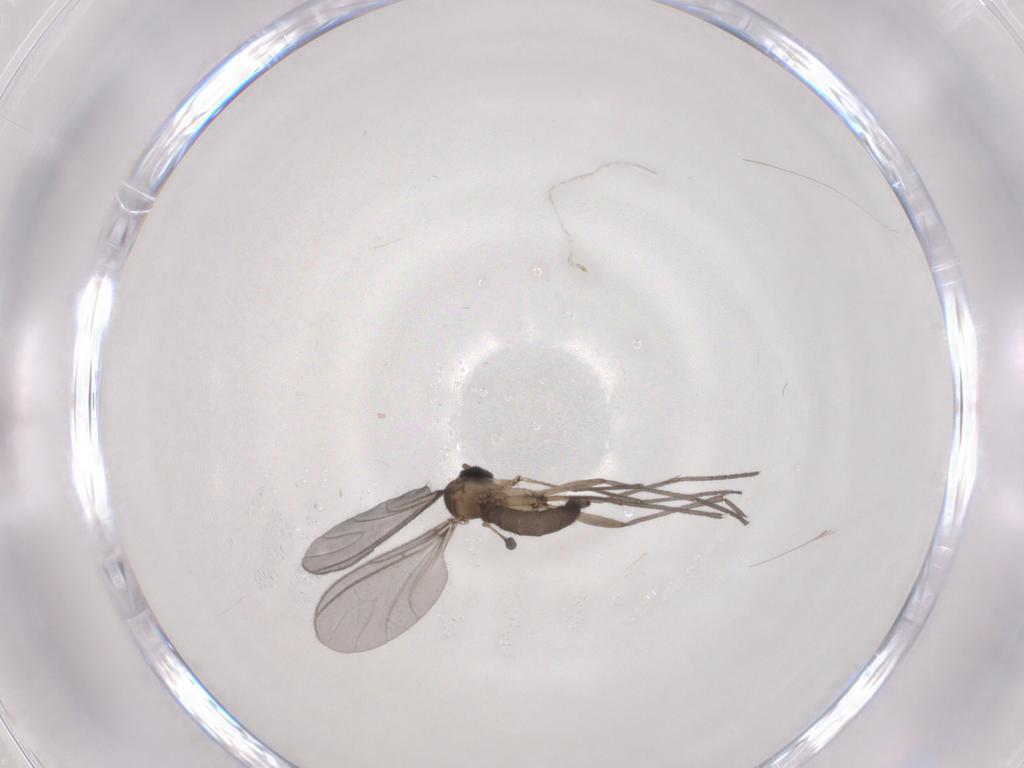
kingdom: Animalia
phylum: Arthropoda
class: Insecta
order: Diptera
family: Sciaridae
